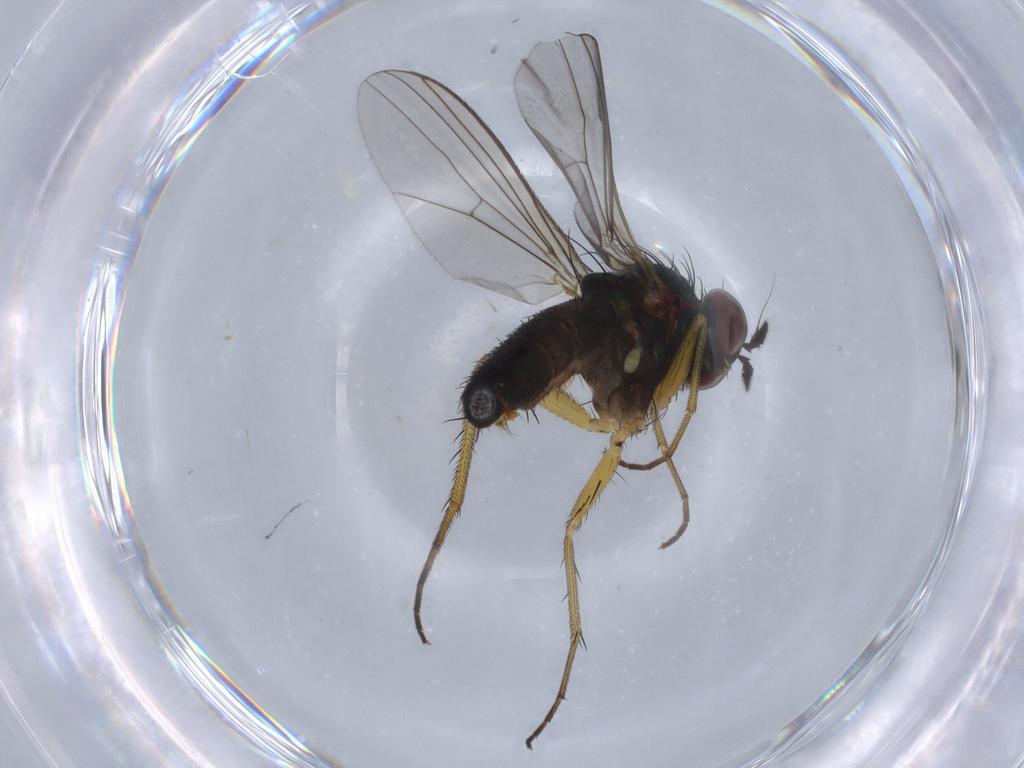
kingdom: Animalia
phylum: Arthropoda
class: Insecta
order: Diptera
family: Dolichopodidae
